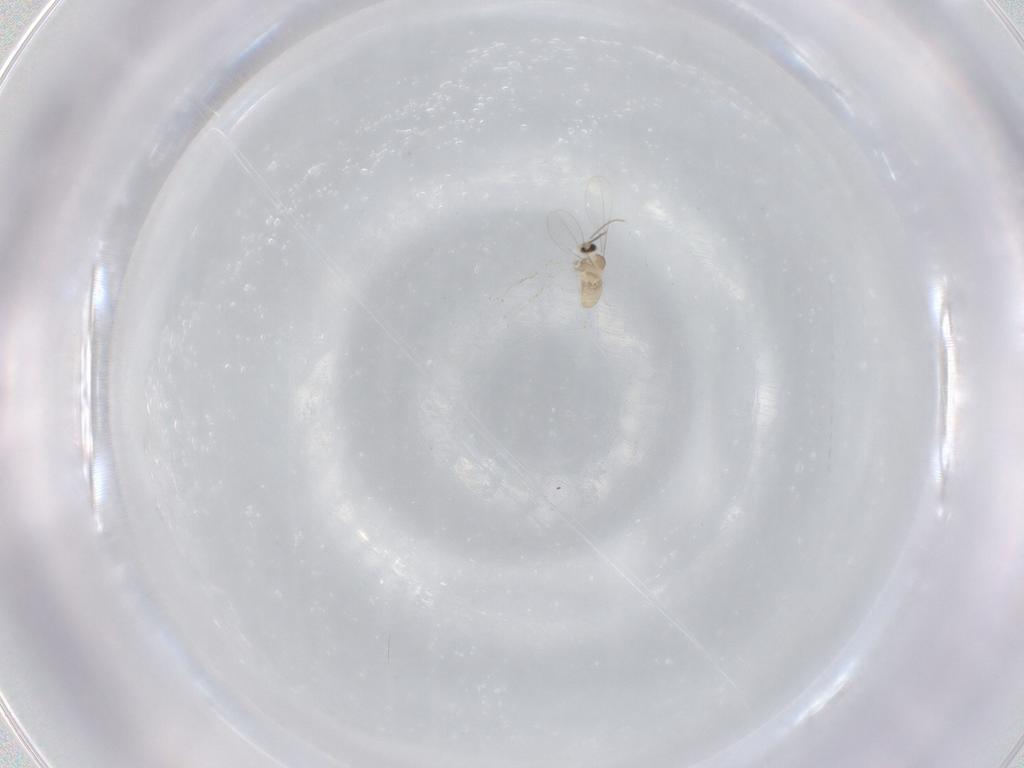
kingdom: Animalia
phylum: Arthropoda
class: Insecta
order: Diptera
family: Cecidomyiidae
